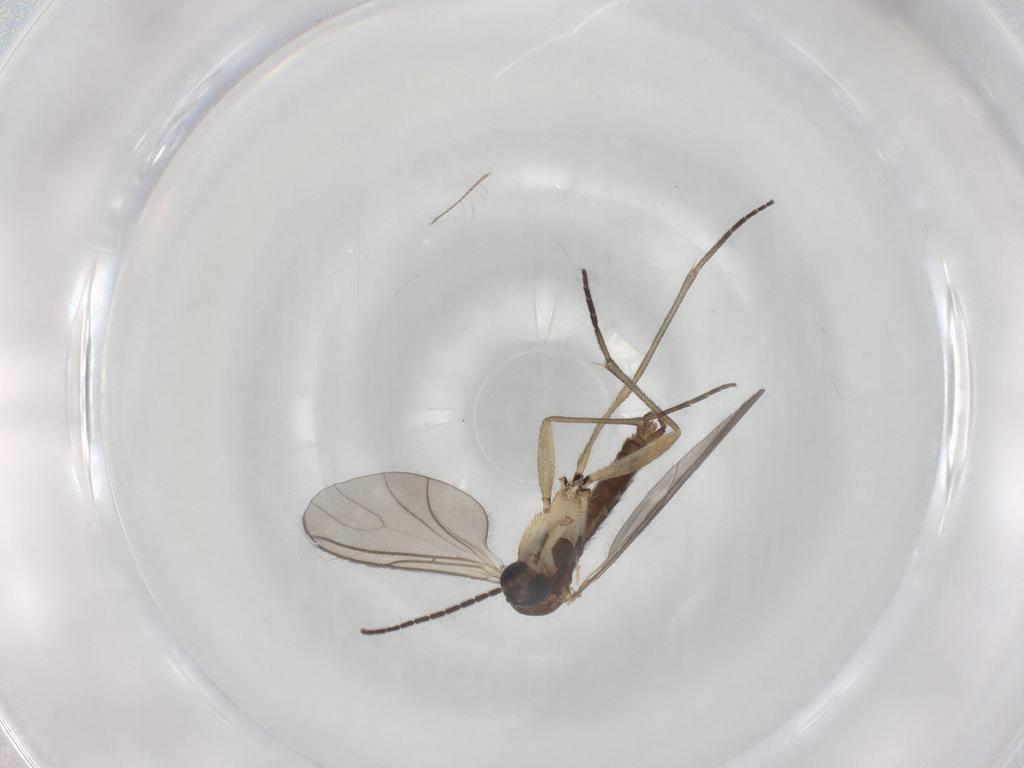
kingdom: Animalia
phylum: Arthropoda
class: Insecta
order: Diptera
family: Sciaridae
